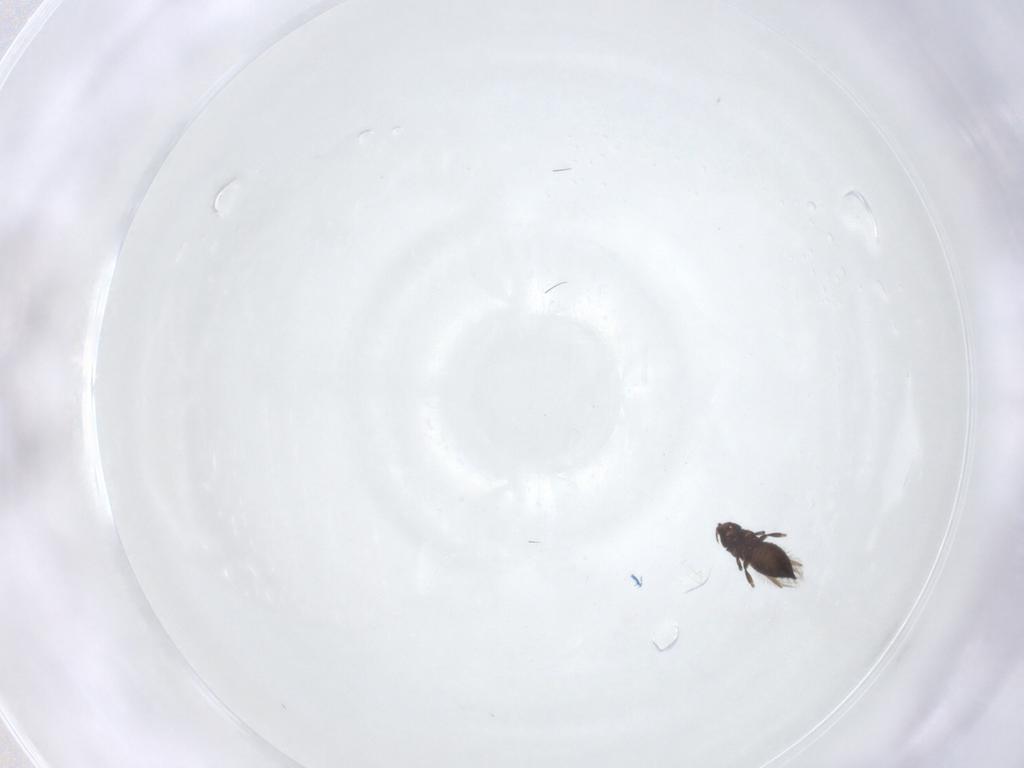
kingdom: Animalia
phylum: Arthropoda
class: Insecta
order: Thysanoptera
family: Thripidae
